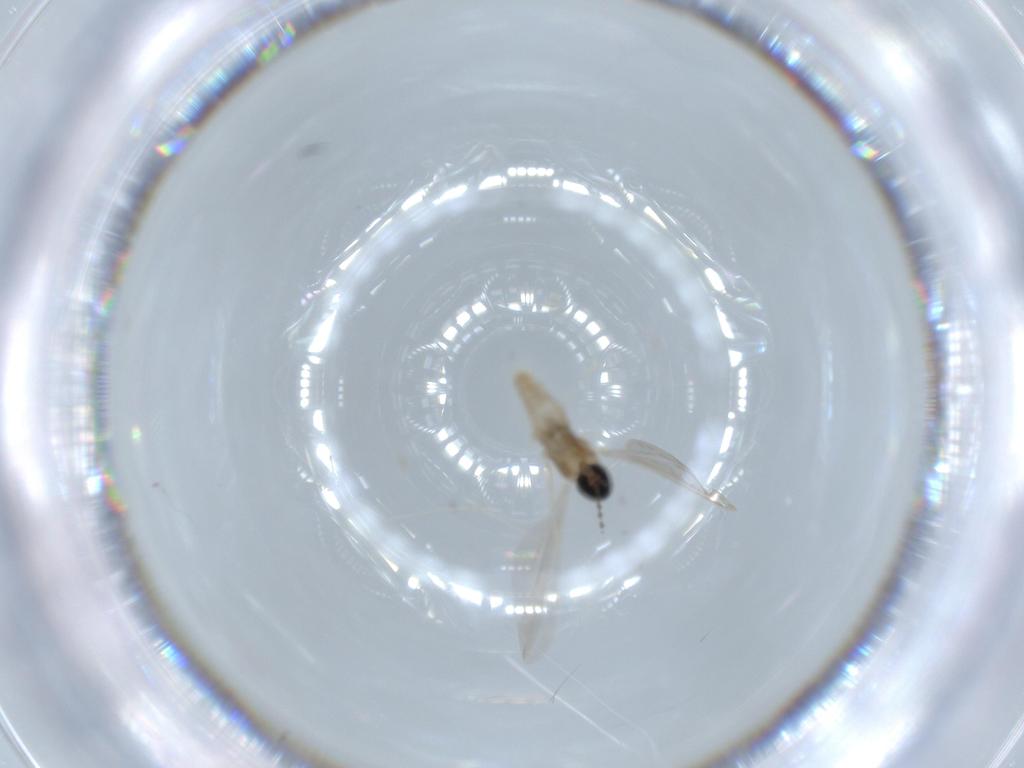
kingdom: Animalia
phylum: Arthropoda
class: Insecta
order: Diptera
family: Cecidomyiidae
